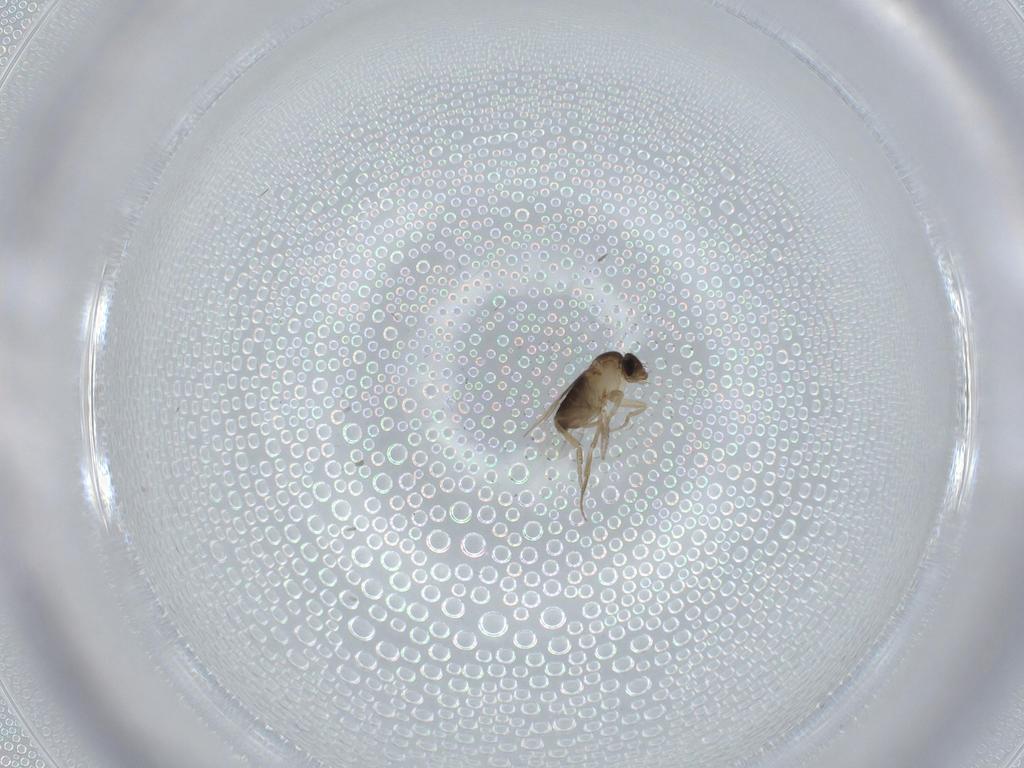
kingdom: Animalia
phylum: Arthropoda
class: Insecta
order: Diptera
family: Phoridae
